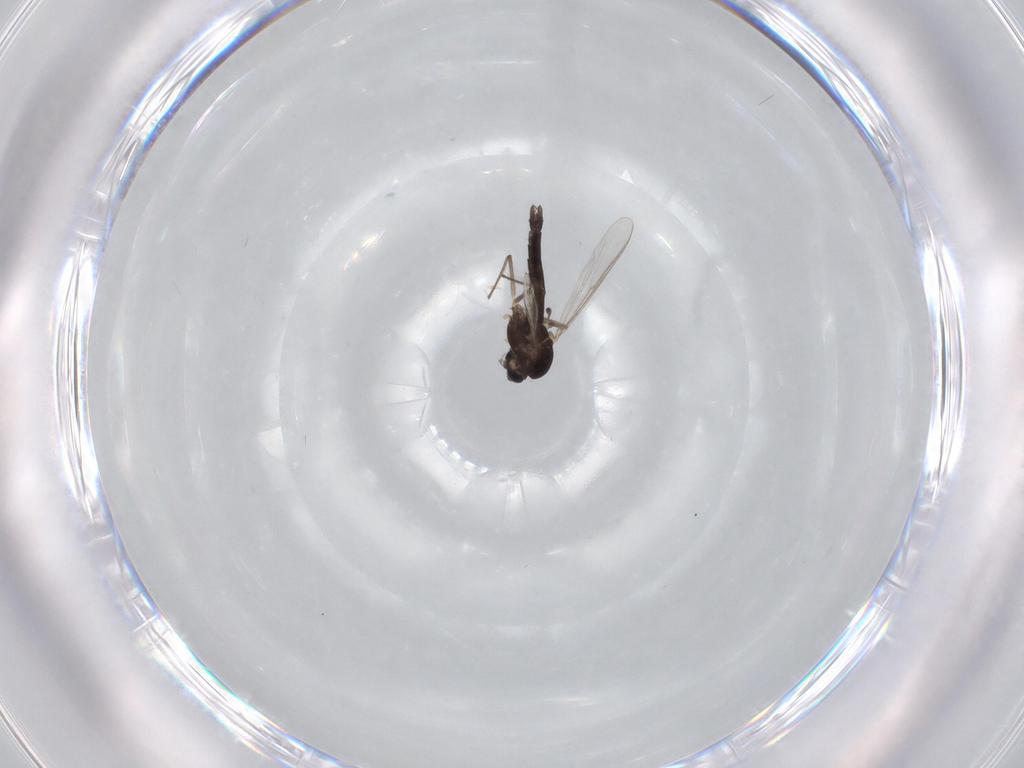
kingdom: Animalia
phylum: Arthropoda
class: Insecta
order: Diptera
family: Chironomidae
